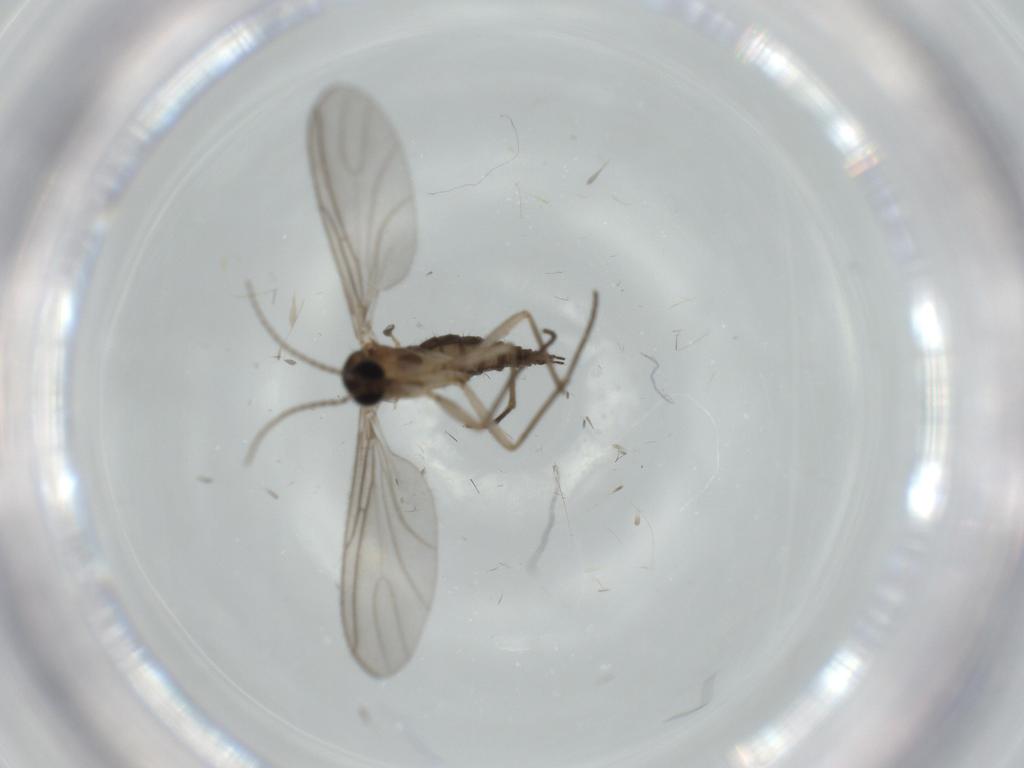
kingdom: Animalia
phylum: Arthropoda
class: Insecta
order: Diptera
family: Sciaridae
